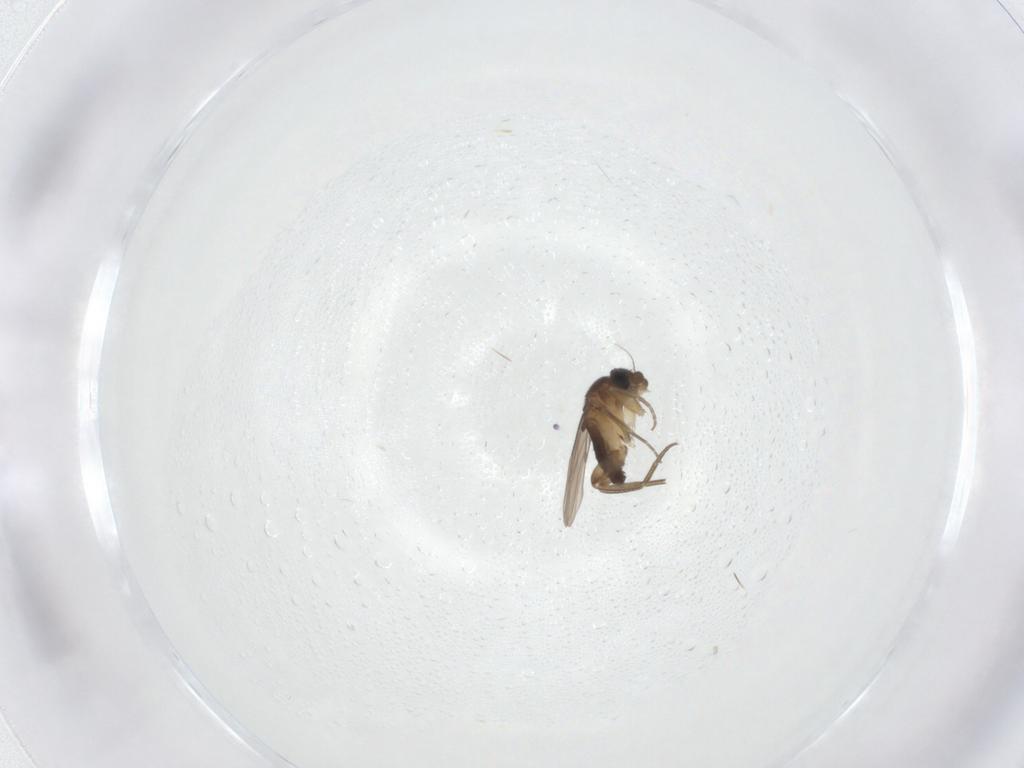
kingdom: Animalia
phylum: Arthropoda
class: Insecta
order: Diptera
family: Phoridae
